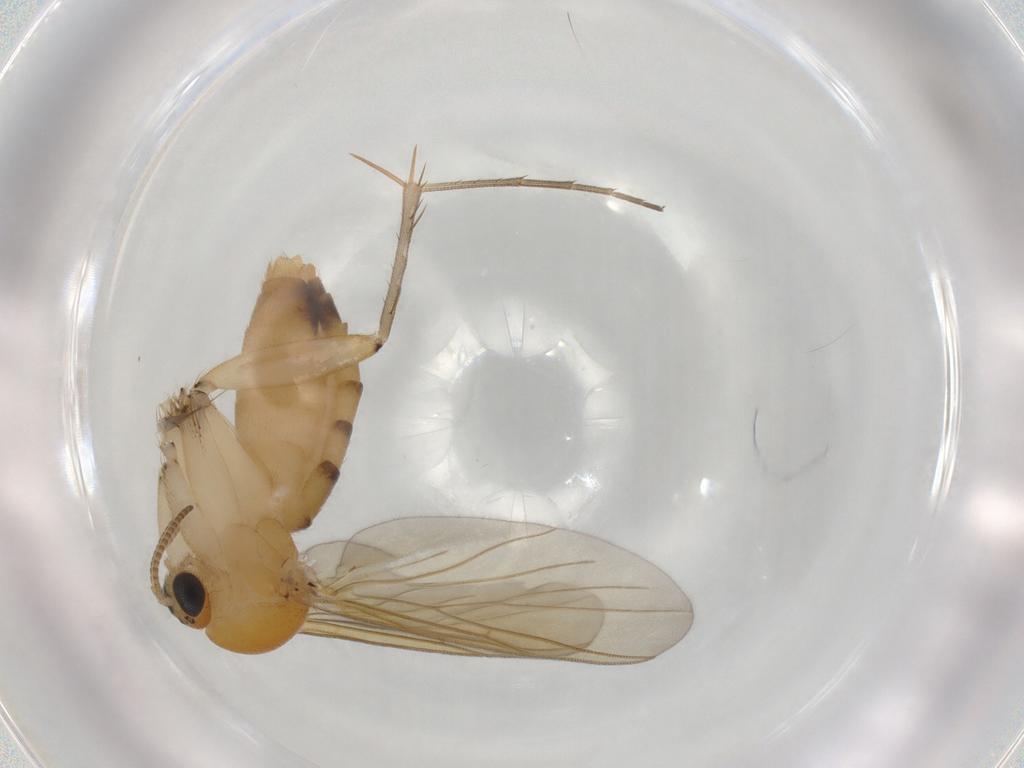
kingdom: Animalia
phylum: Arthropoda
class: Insecta
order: Diptera
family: Mycetophilidae
